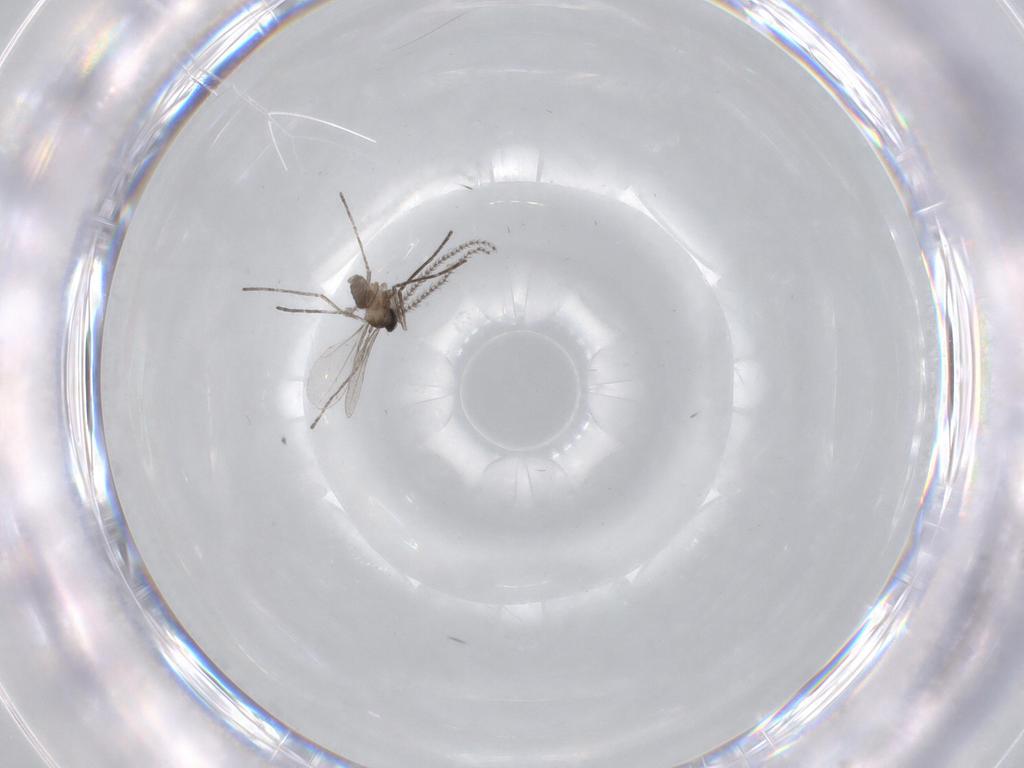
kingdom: Animalia
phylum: Arthropoda
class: Insecta
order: Diptera
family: Cecidomyiidae
